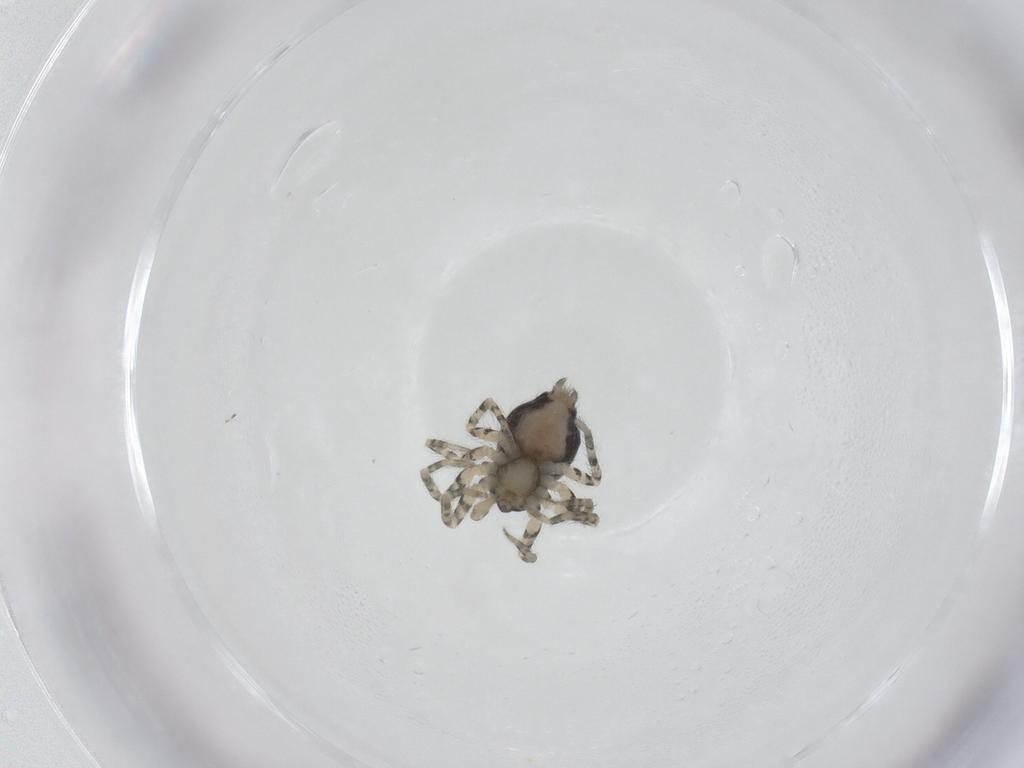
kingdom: Animalia
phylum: Arthropoda
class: Arachnida
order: Araneae
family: Oecobiidae
